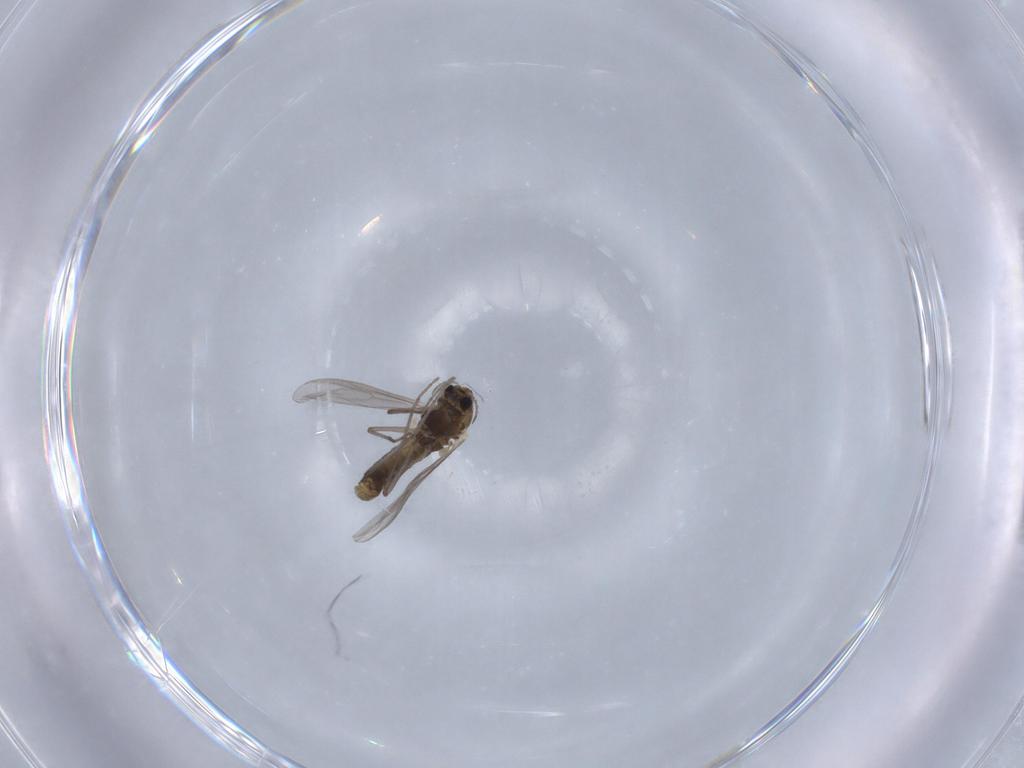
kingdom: Animalia
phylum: Arthropoda
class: Insecta
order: Diptera
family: Chironomidae
